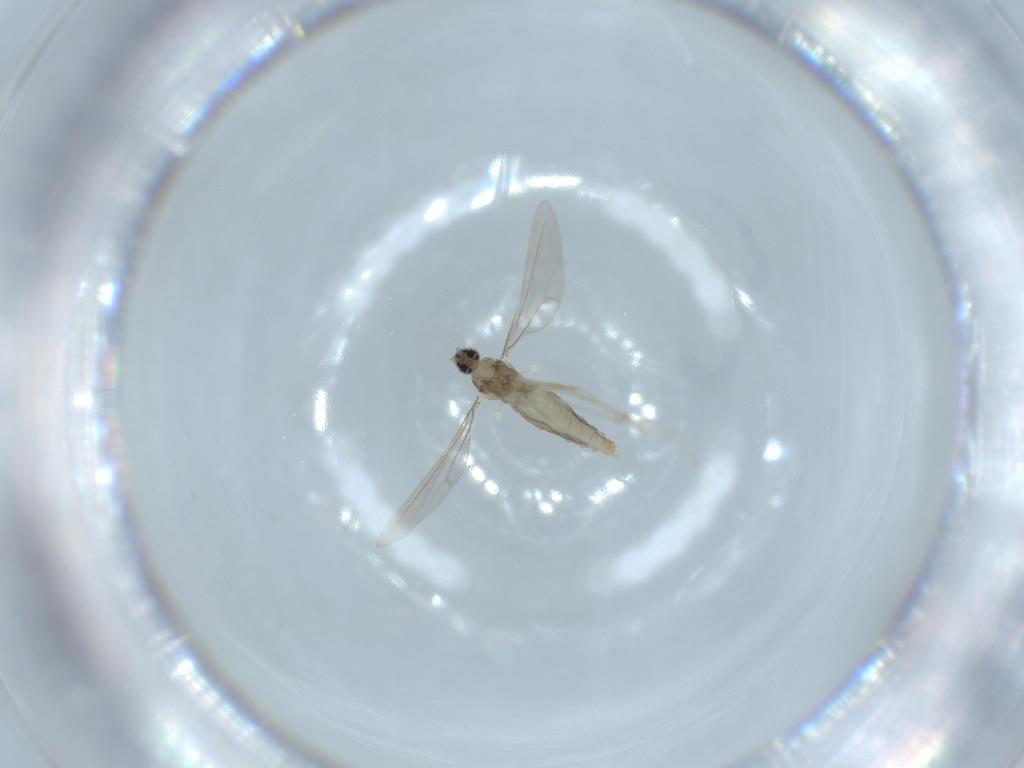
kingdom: Animalia
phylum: Arthropoda
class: Insecta
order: Diptera
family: Cecidomyiidae
